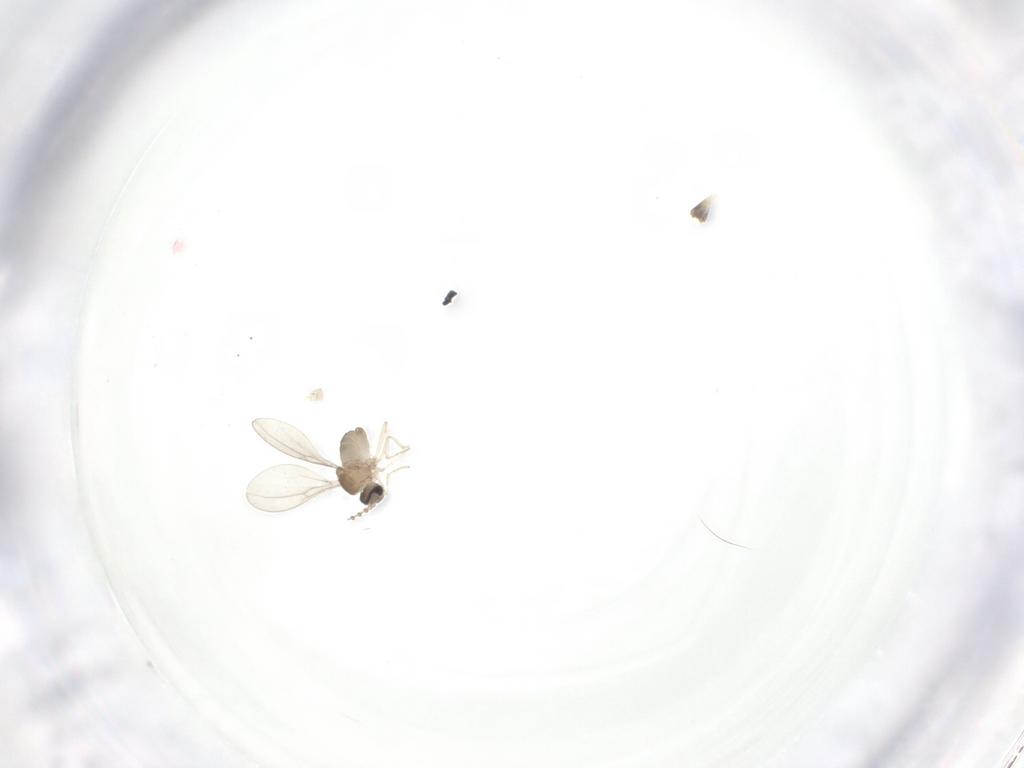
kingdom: Animalia
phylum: Arthropoda
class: Insecta
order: Diptera
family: Chironomidae
